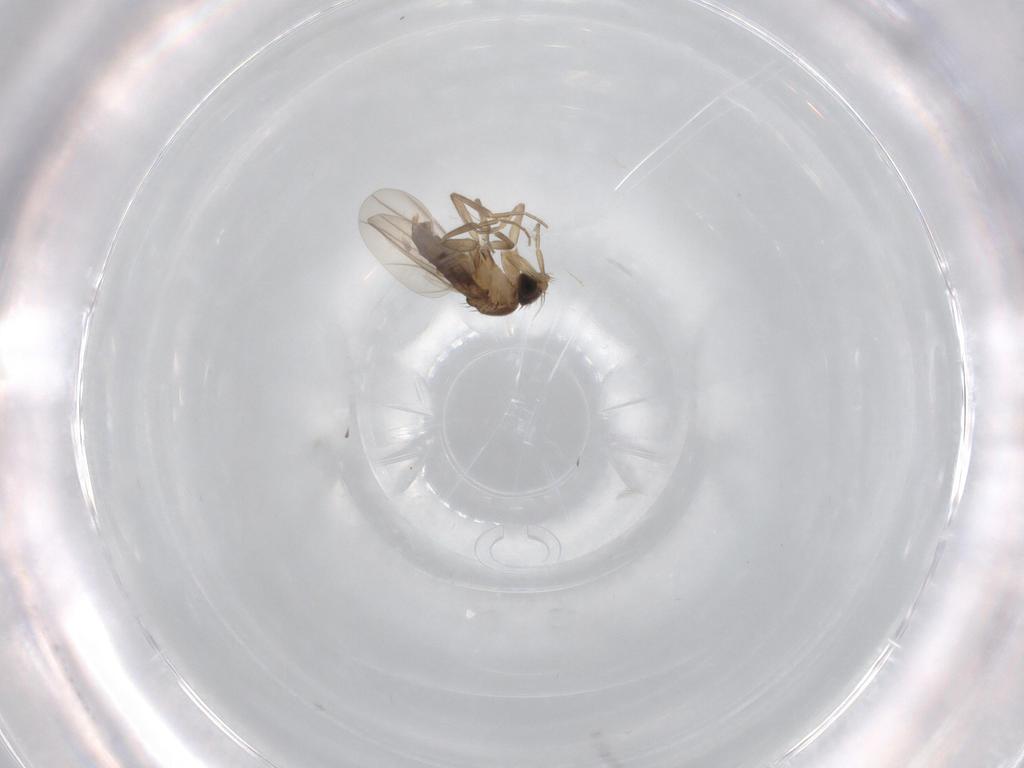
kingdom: Animalia
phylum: Arthropoda
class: Insecta
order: Diptera
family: Phoridae
